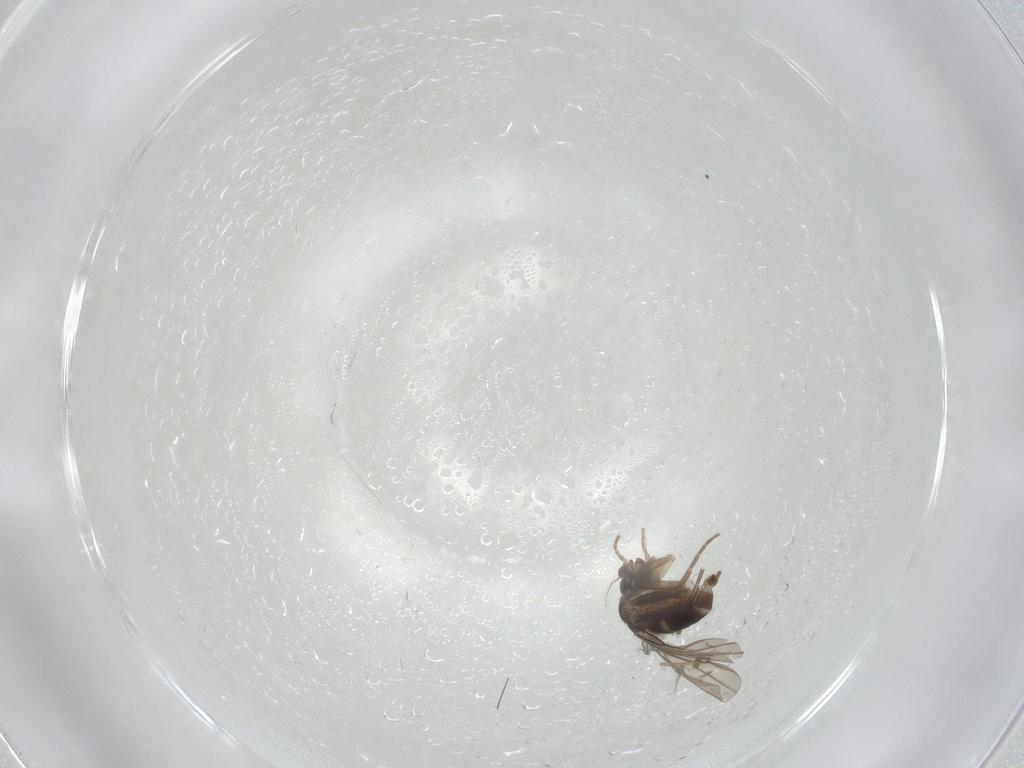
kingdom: Animalia
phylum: Arthropoda
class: Insecta
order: Diptera
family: Chironomidae
